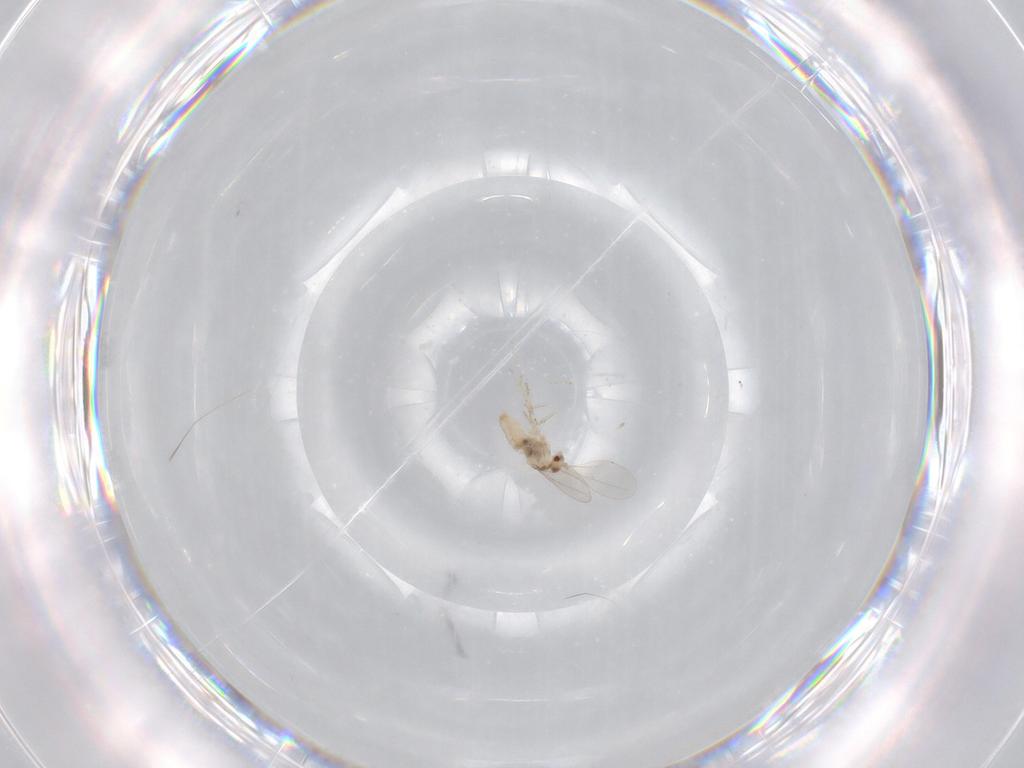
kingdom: Animalia
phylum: Arthropoda
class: Insecta
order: Diptera
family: Cecidomyiidae
